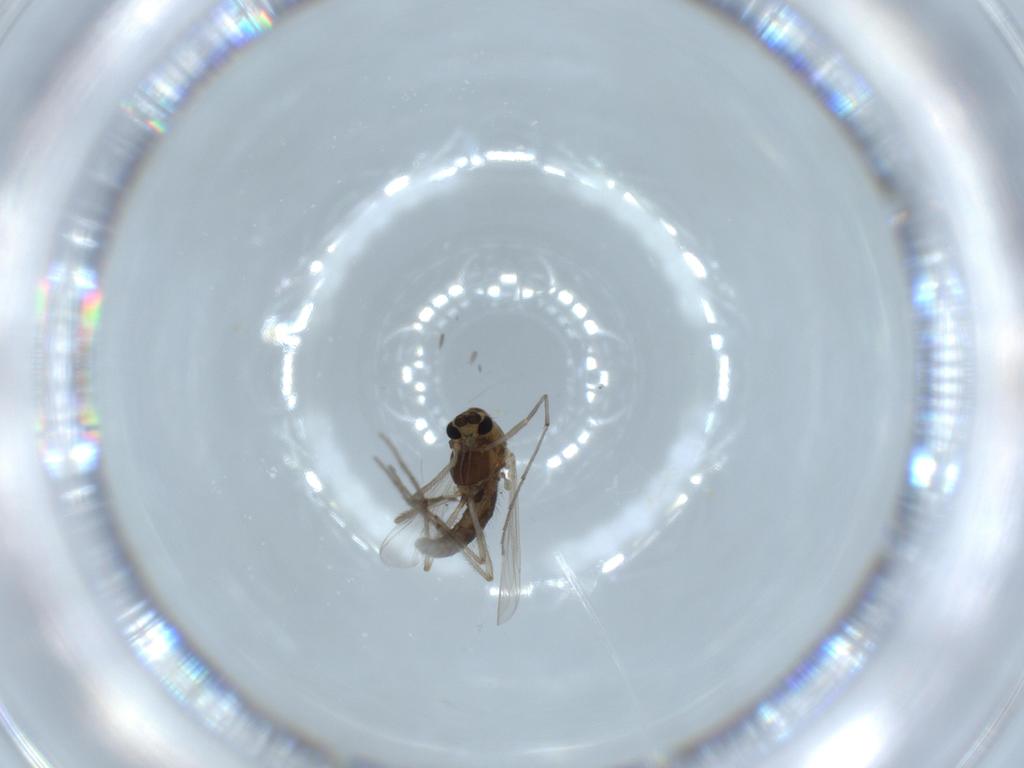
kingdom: Animalia
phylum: Arthropoda
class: Insecta
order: Diptera
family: Chironomidae
